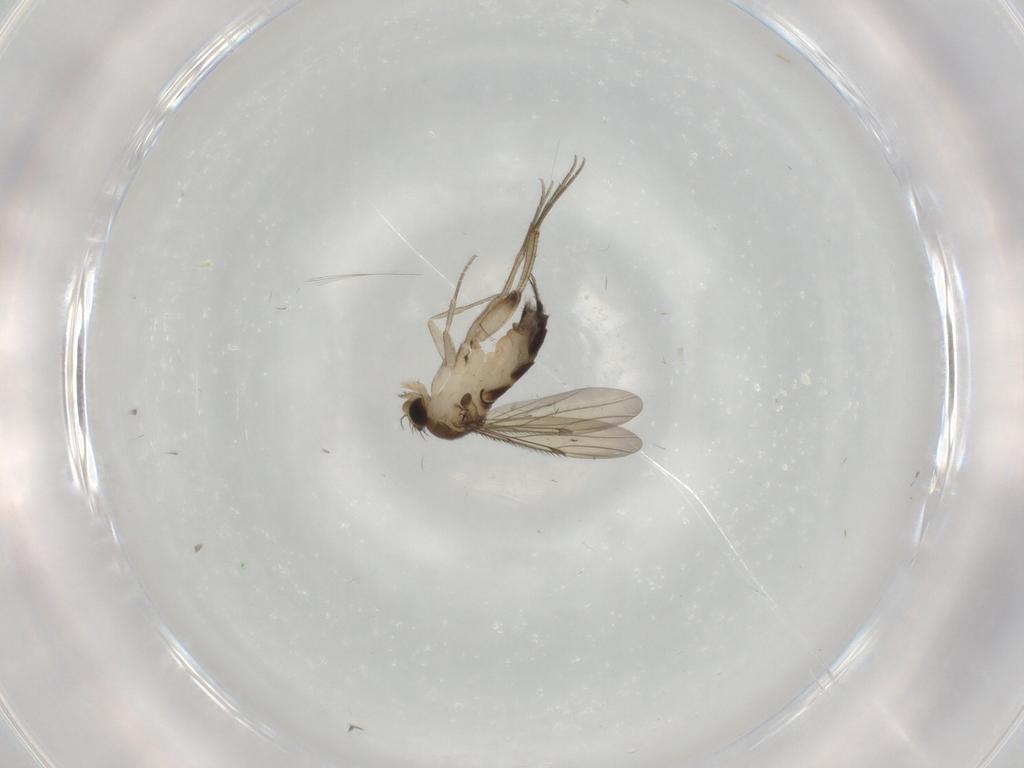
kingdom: Animalia
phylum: Arthropoda
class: Insecta
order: Diptera
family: Phoridae
